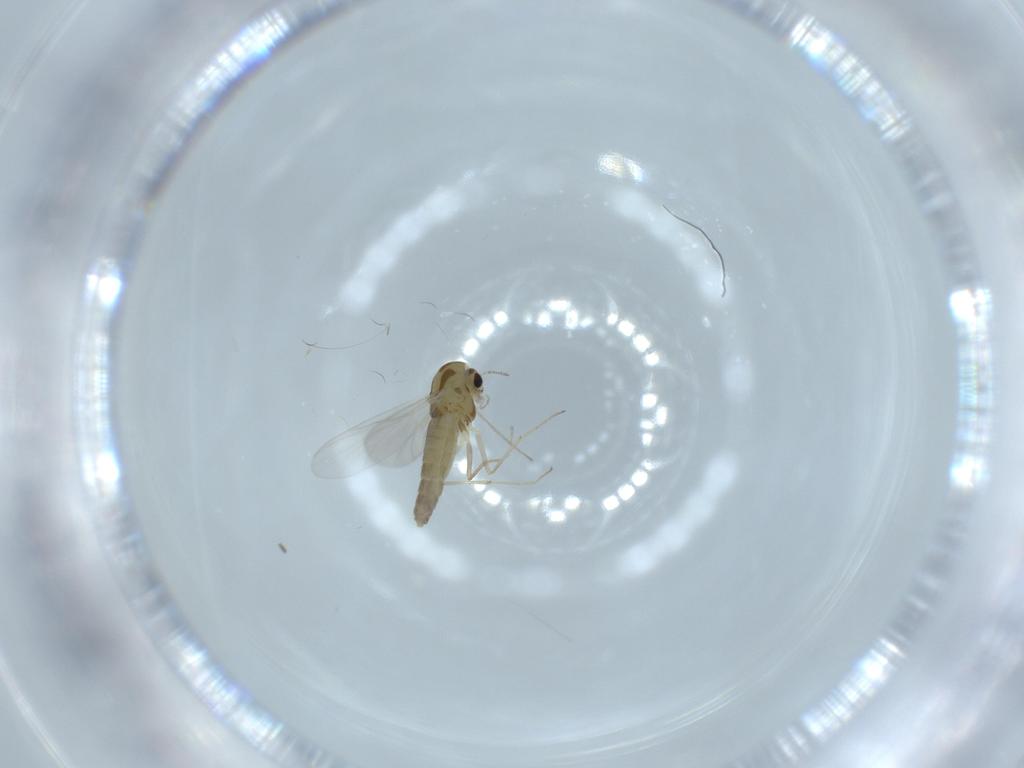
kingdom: Animalia
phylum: Arthropoda
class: Insecta
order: Diptera
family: Chironomidae
